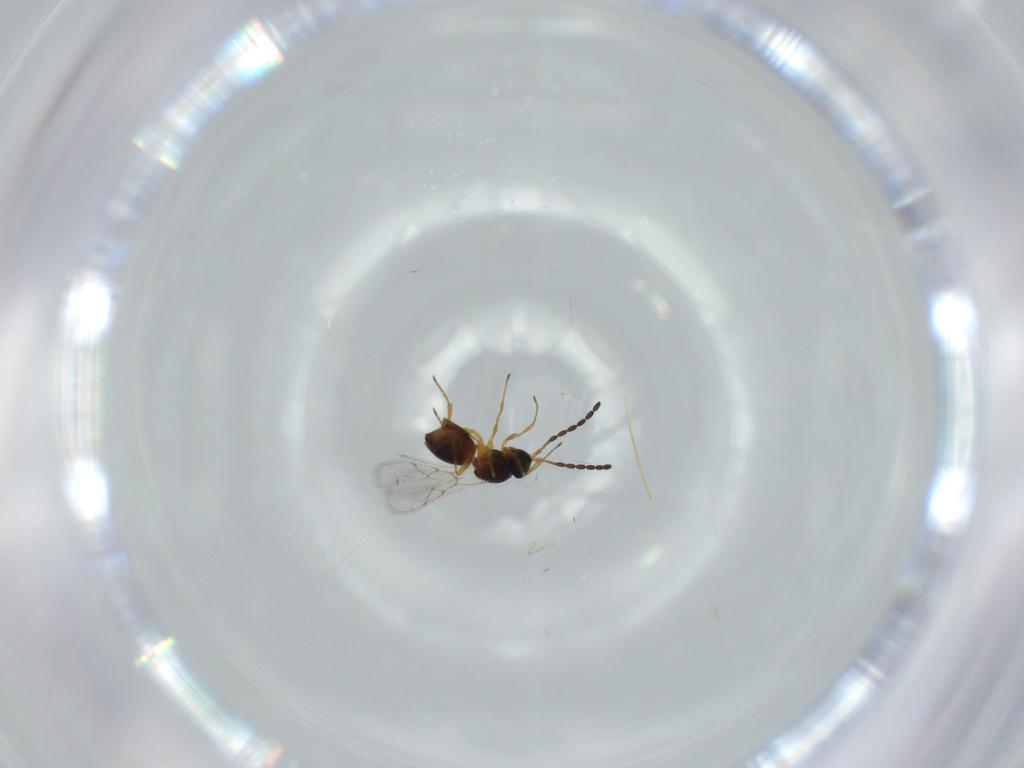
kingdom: Animalia
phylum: Arthropoda
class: Insecta
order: Hymenoptera
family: Figitidae
